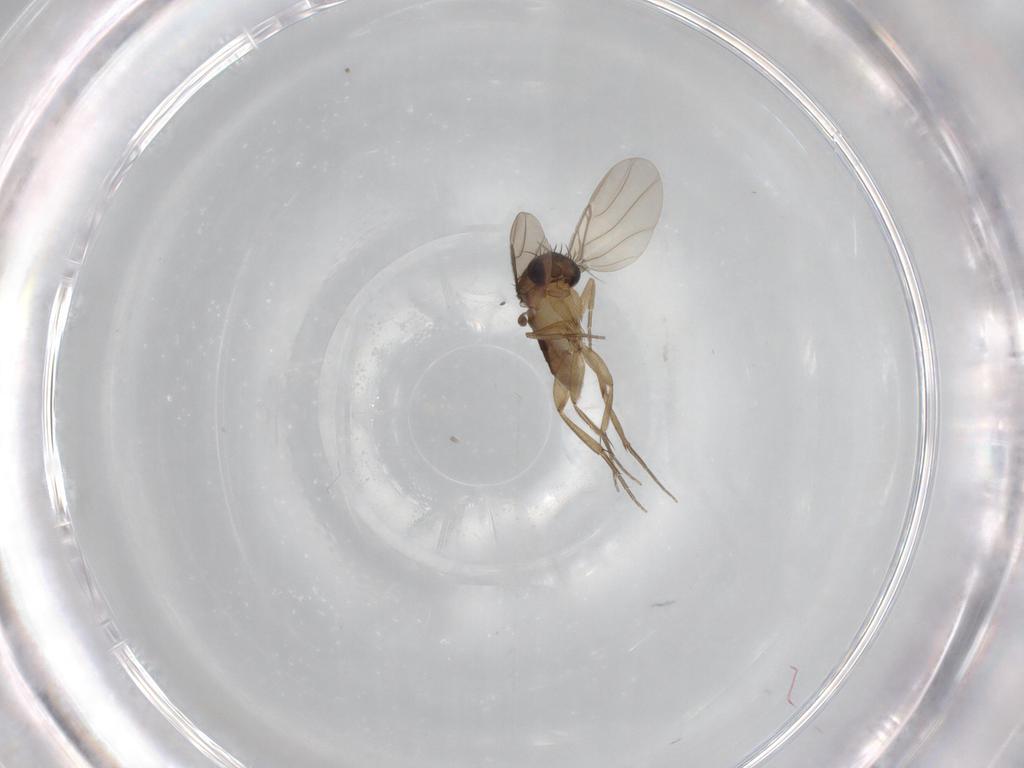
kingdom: Animalia
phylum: Arthropoda
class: Insecta
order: Diptera
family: Phoridae
